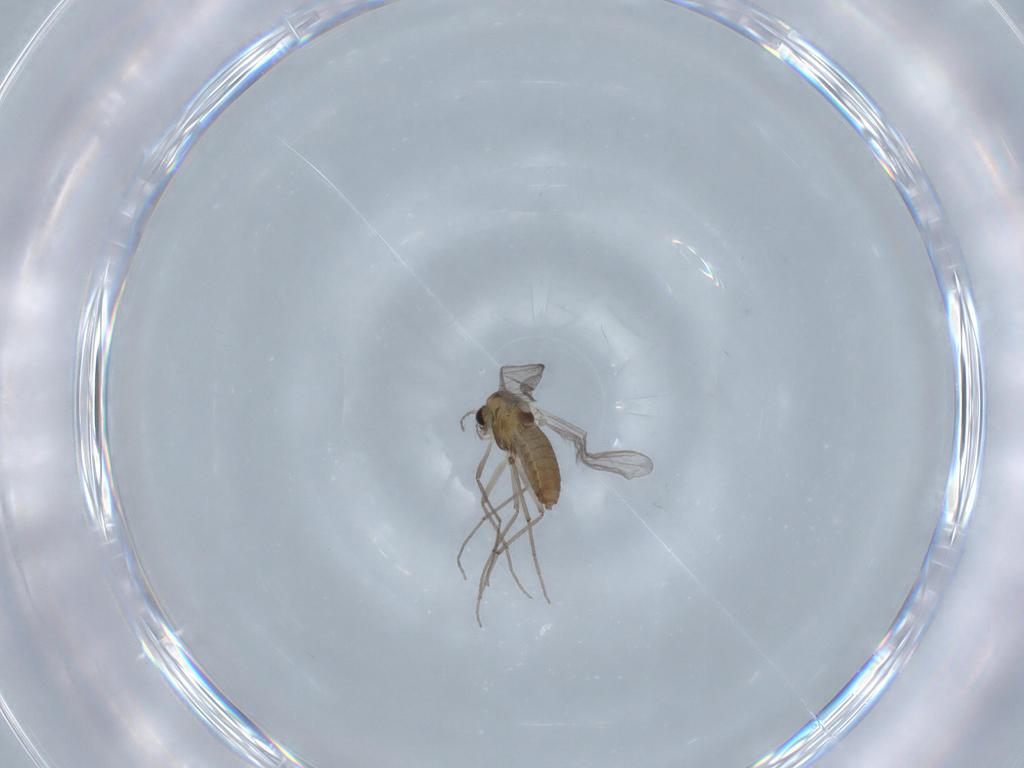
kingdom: Animalia
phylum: Arthropoda
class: Insecta
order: Diptera
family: Chironomidae
